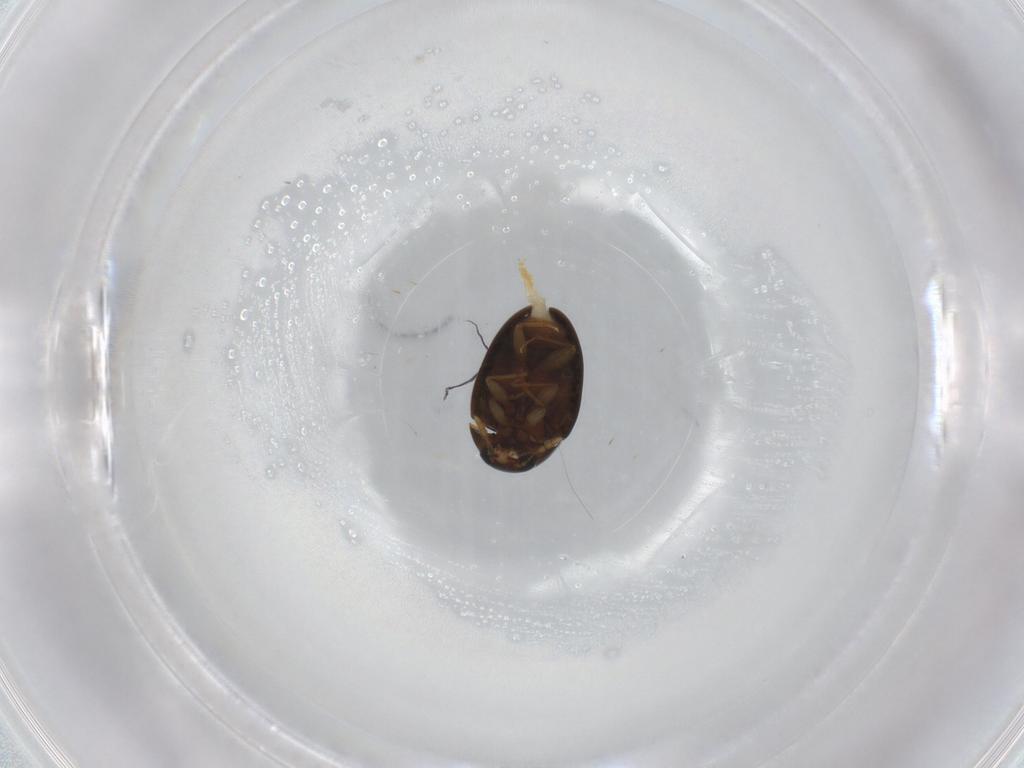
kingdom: Animalia
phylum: Arthropoda
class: Insecta
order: Coleoptera
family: Phalacridae
